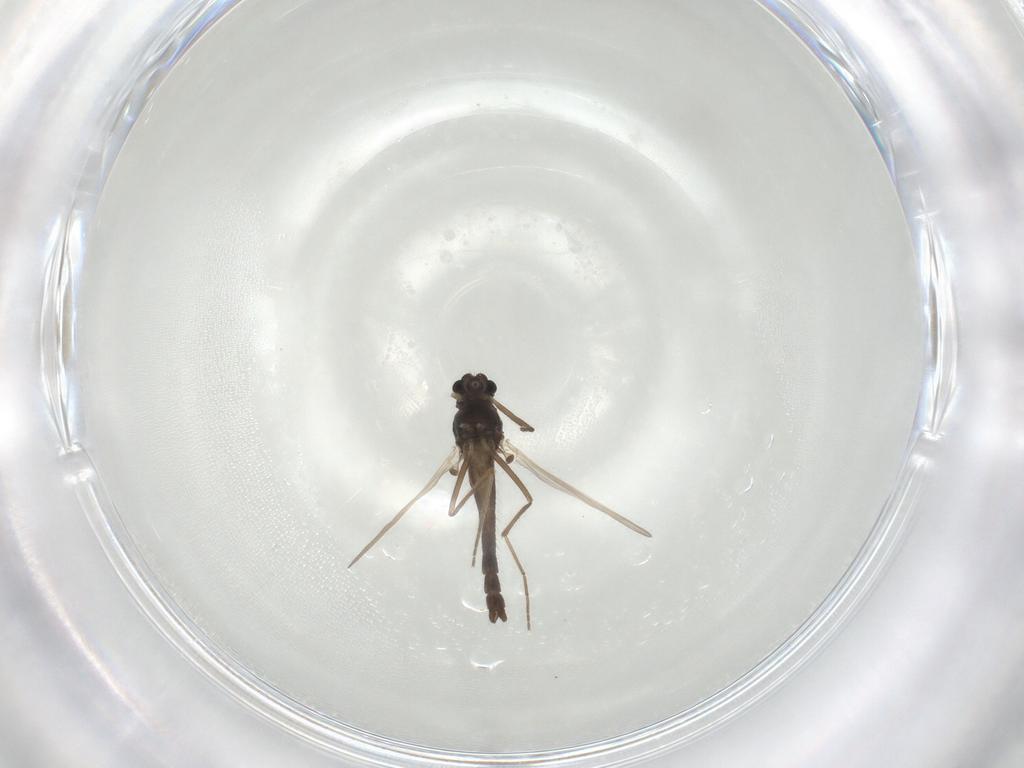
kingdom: Animalia
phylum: Arthropoda
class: Insecta
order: Diptera
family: Chironomidae
